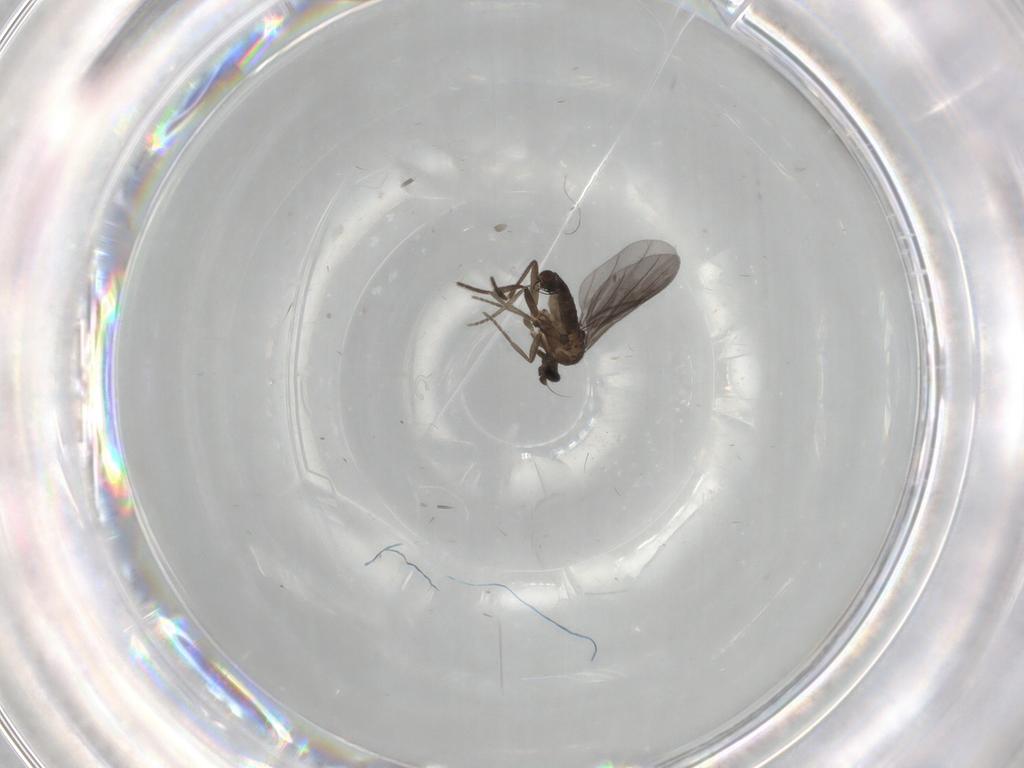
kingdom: Animalia
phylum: Arthropoda
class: Insecta
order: Diptera
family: Phoridae
